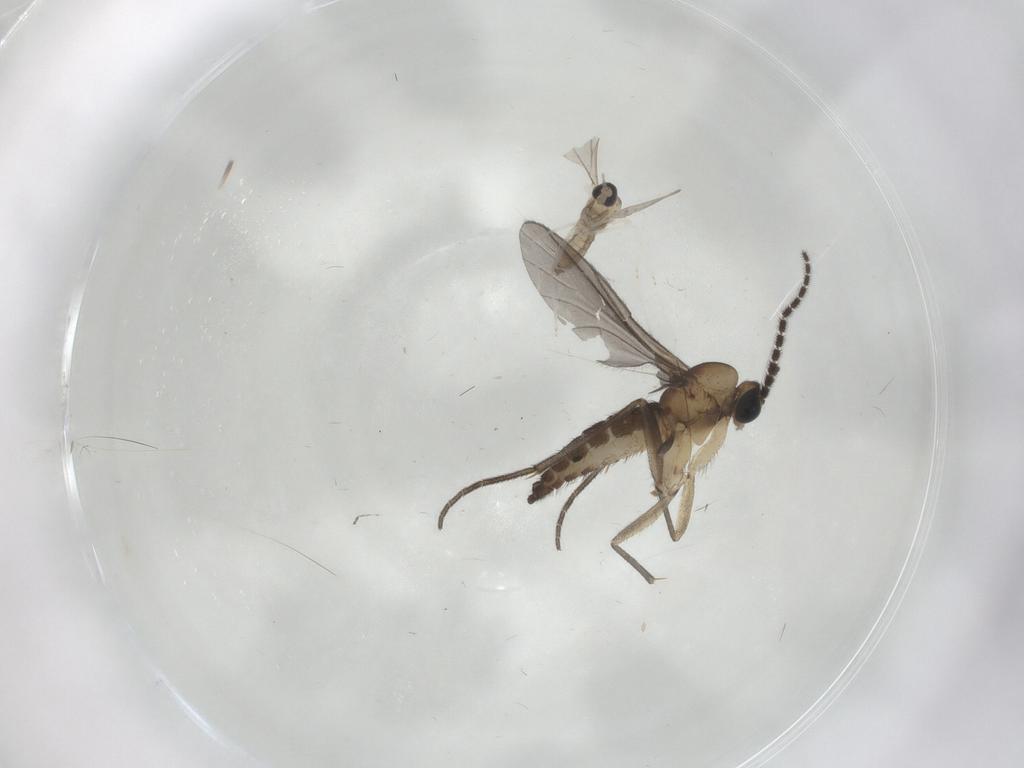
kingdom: Animalia
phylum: Arthropoda
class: Insecta
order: Diptera
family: Sciaridae
